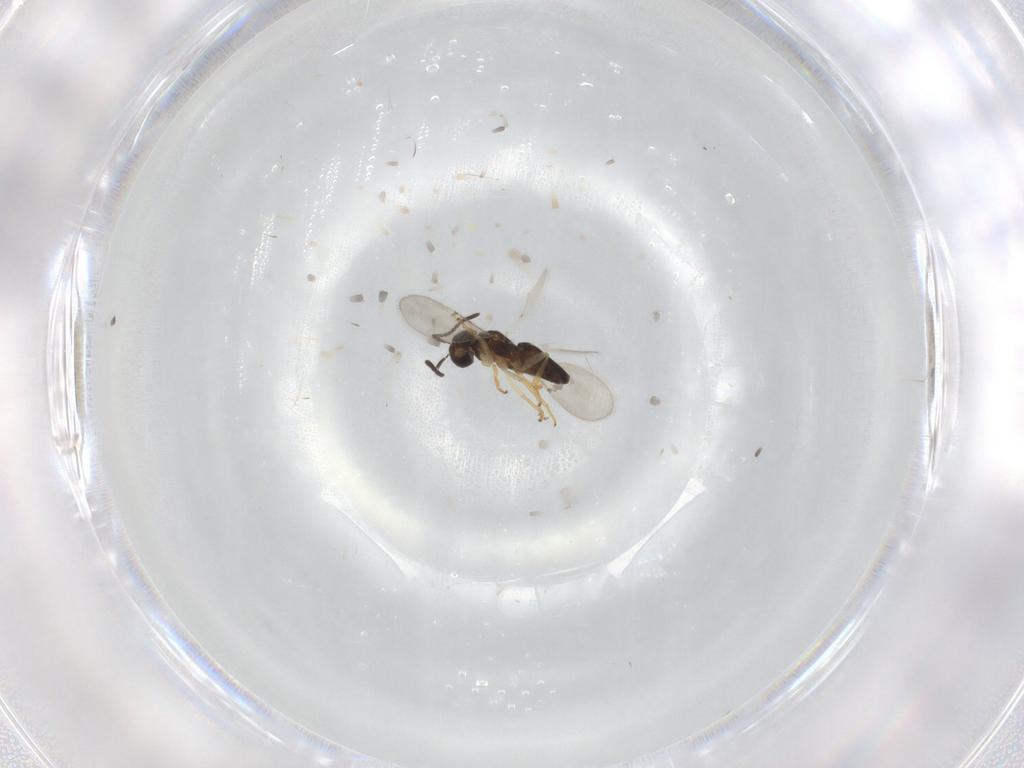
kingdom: Animalia
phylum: Arthropoda
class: Insecta
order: Hymenoptera
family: Encyrtidae
